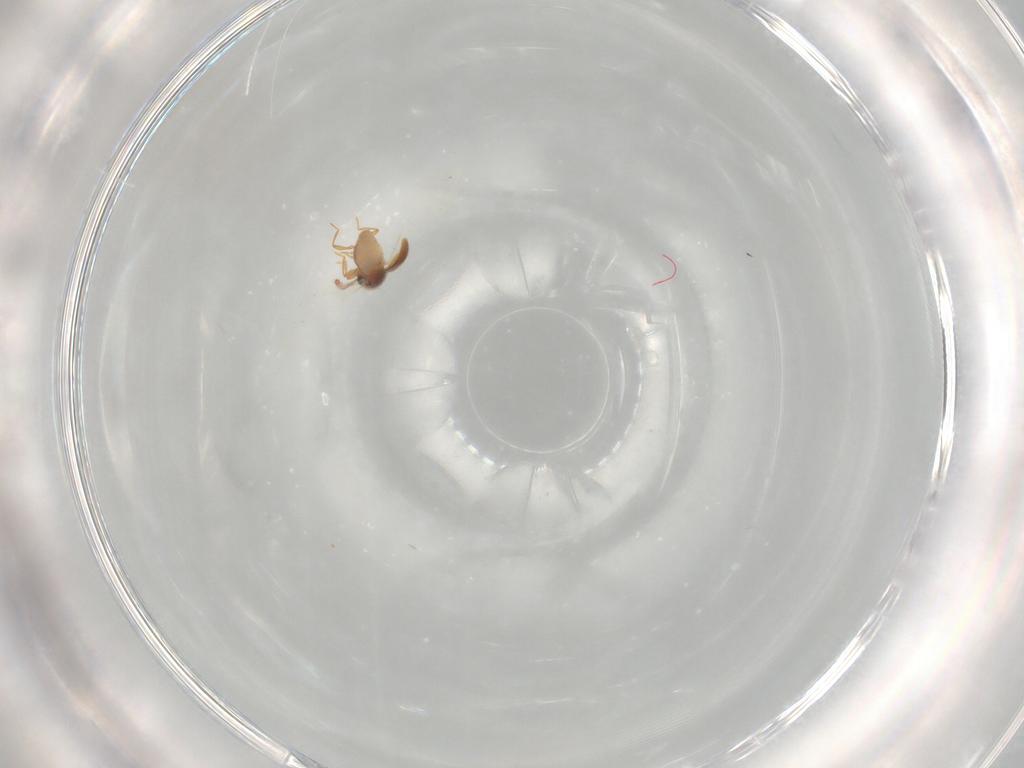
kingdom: Animalia
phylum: Arthropoda
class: Insecta
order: Coleoptera
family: Staphylinidae
